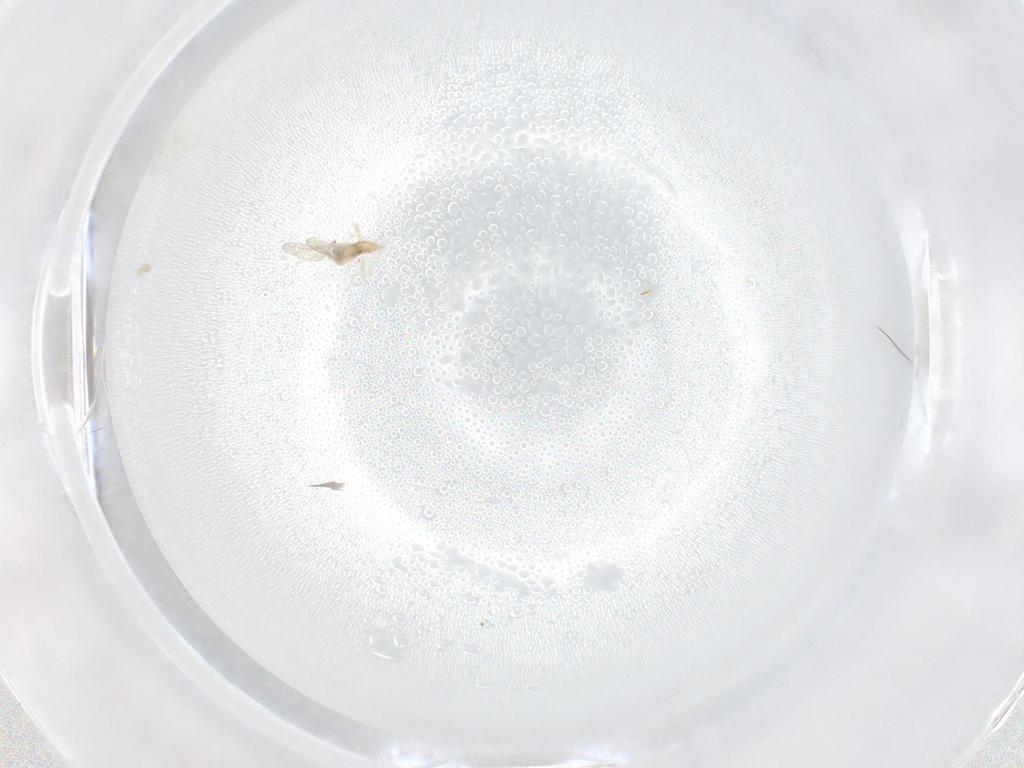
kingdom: Animalia
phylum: Arthropoda
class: Insecta
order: Diptera
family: Cecidomyiidae
